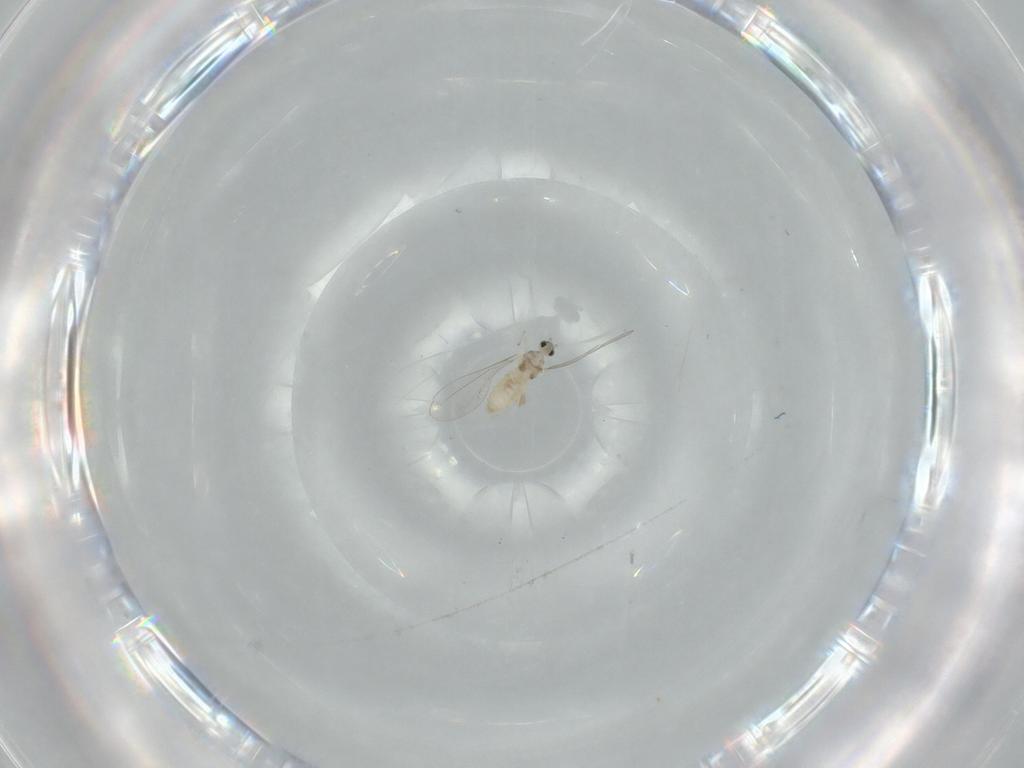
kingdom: Animalia
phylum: Arthropoda
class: Insecta
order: Diptera
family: Cecidomyiidae
